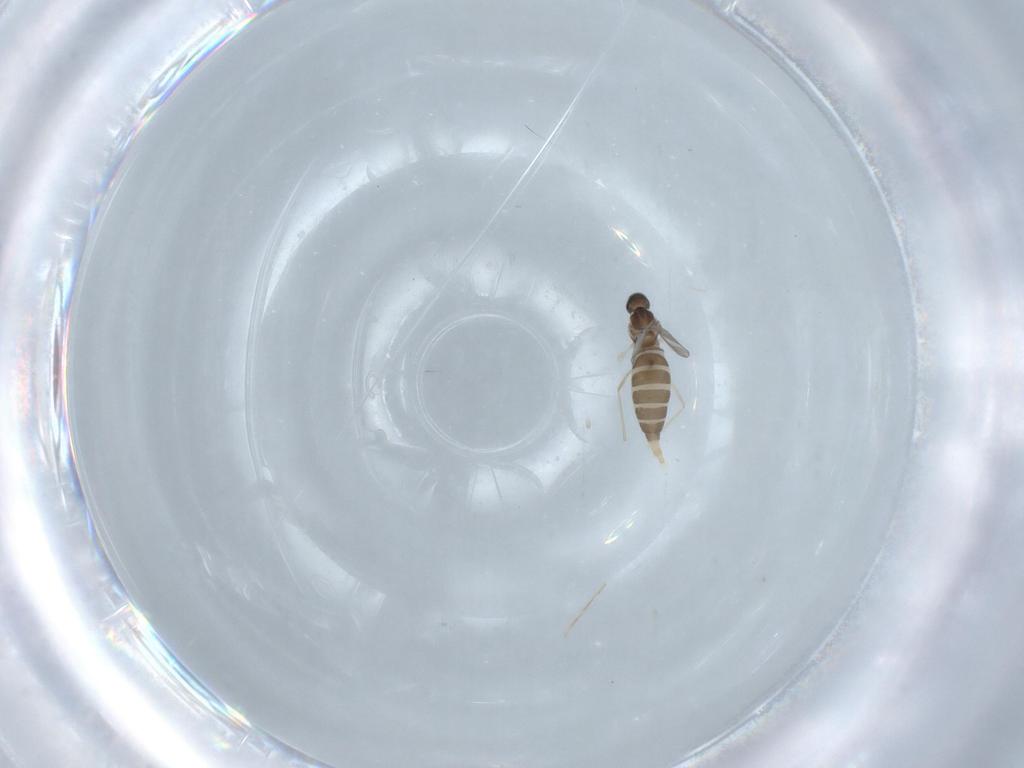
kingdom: Animalia
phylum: Arthropoda
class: Insecta
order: Diptera
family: Cecidomyiidae
